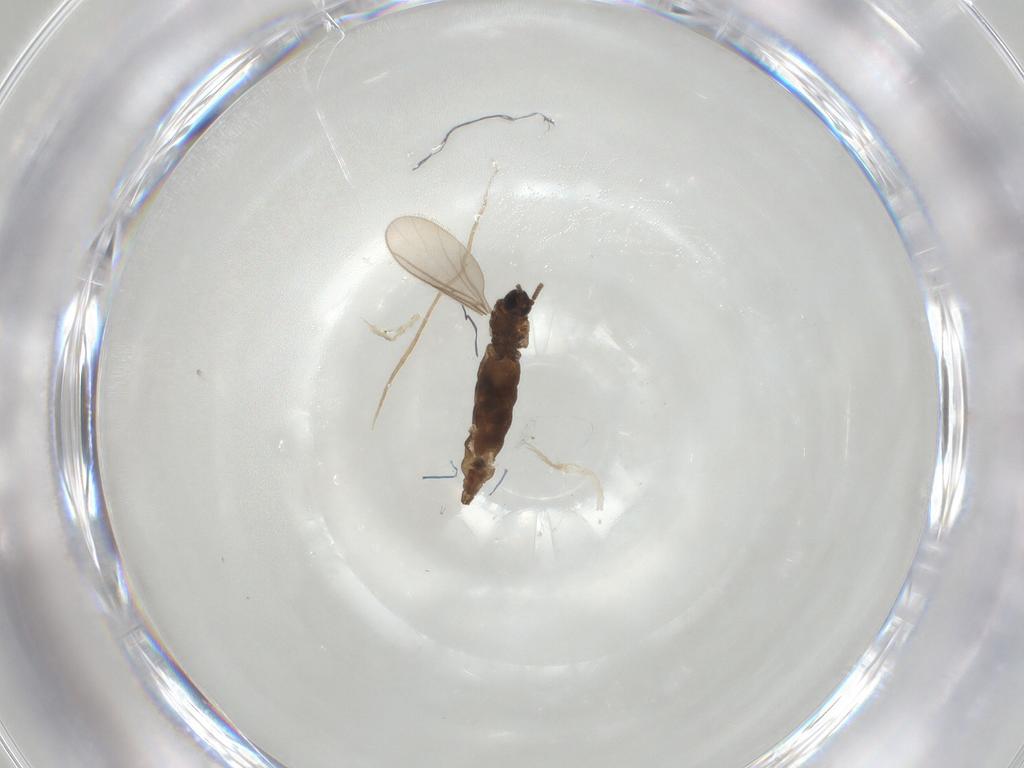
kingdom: Animalia
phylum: Arthropoda
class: Insecta
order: Diptera
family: Tachinidae
